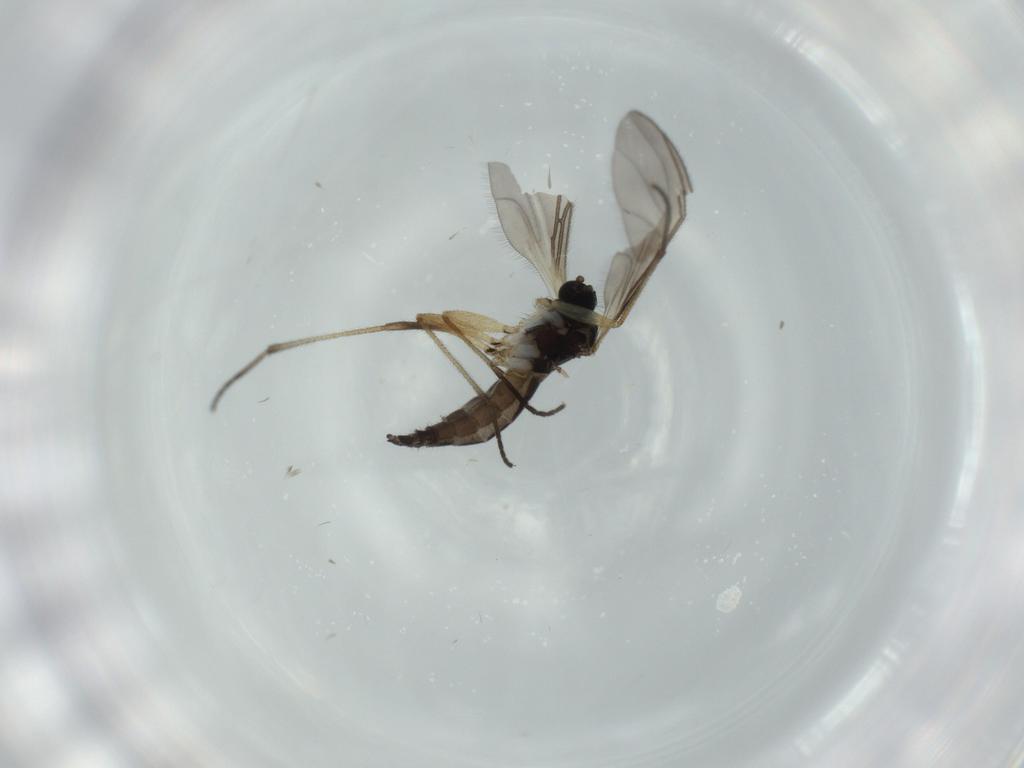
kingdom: Animalia
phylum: Arthropoda
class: Insecta
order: Diptera
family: Sciaridae
